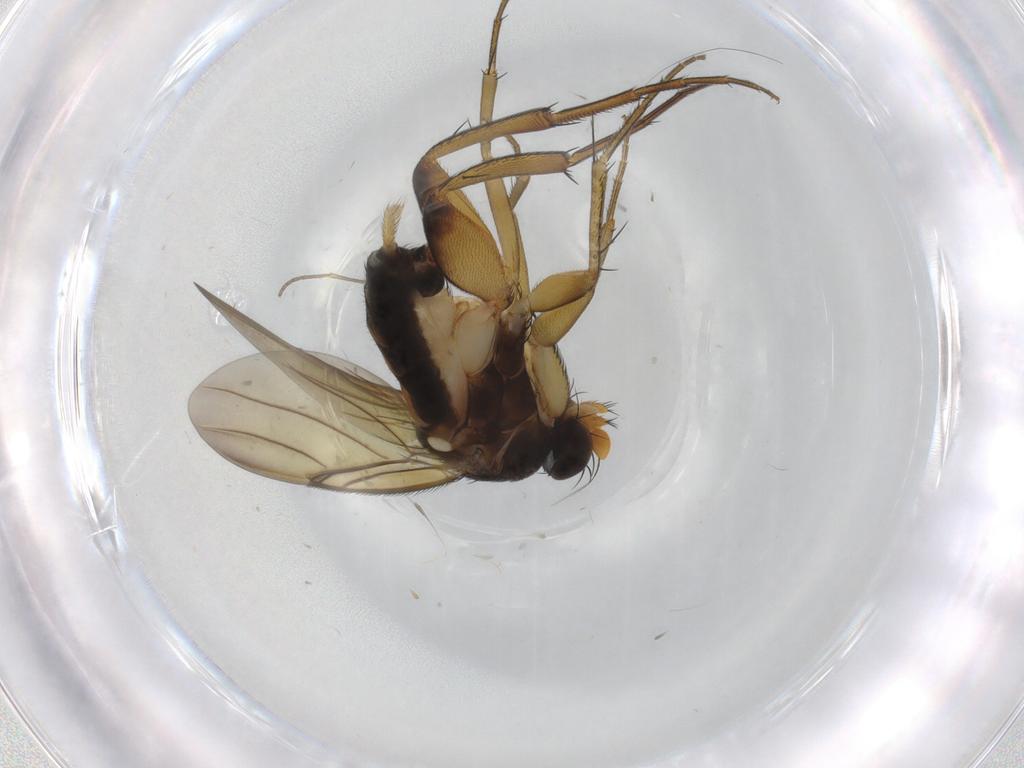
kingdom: Animalia
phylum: Arthropoda
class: Insecta
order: Diptera
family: Phoridae
